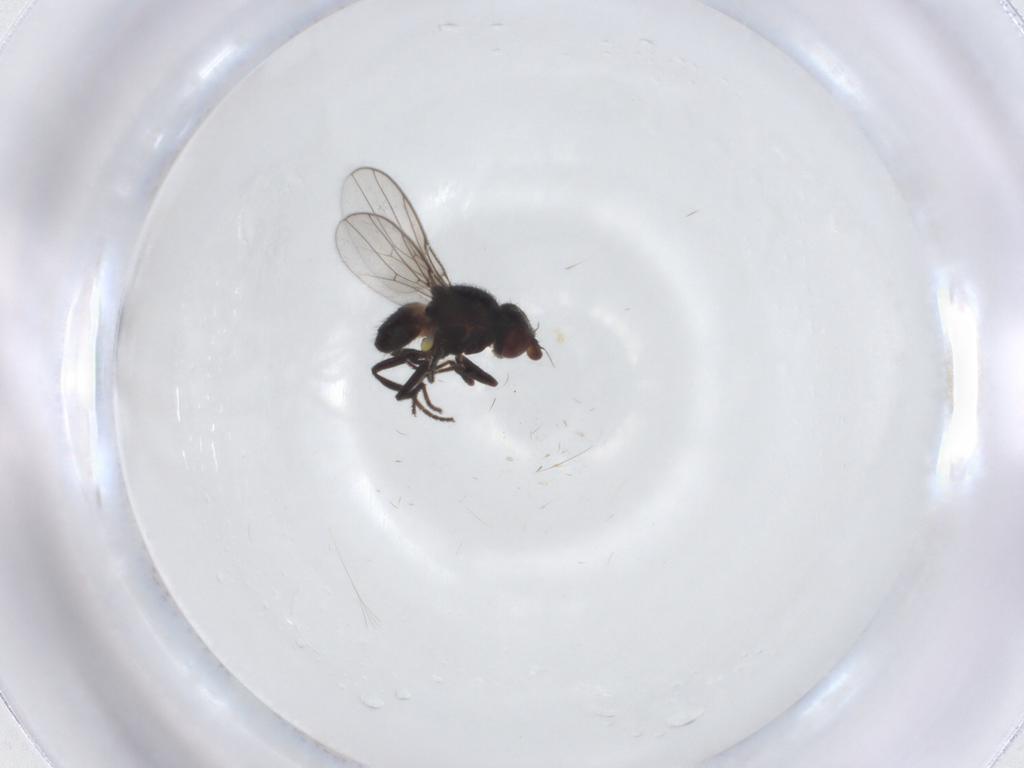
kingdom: Animalia
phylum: Arthropoda
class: Insecta
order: Diptera
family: Chloropidae
